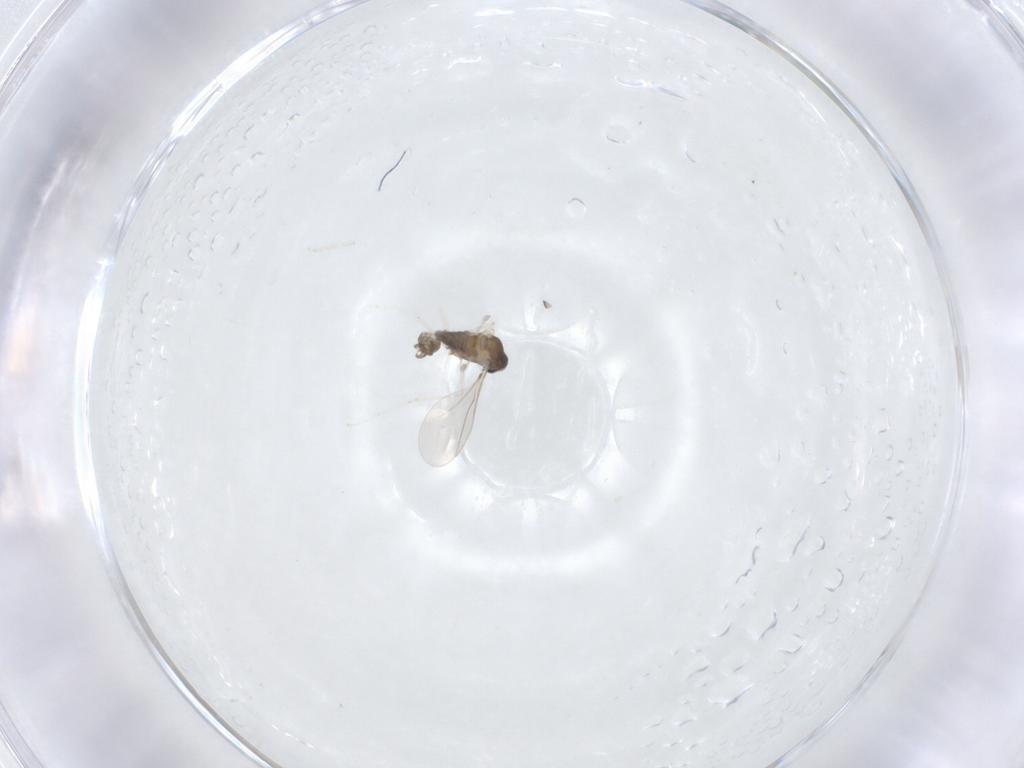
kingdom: Animalia
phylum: Arthropoda
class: Insecta
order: Diptera
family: Cecidomyiidae
